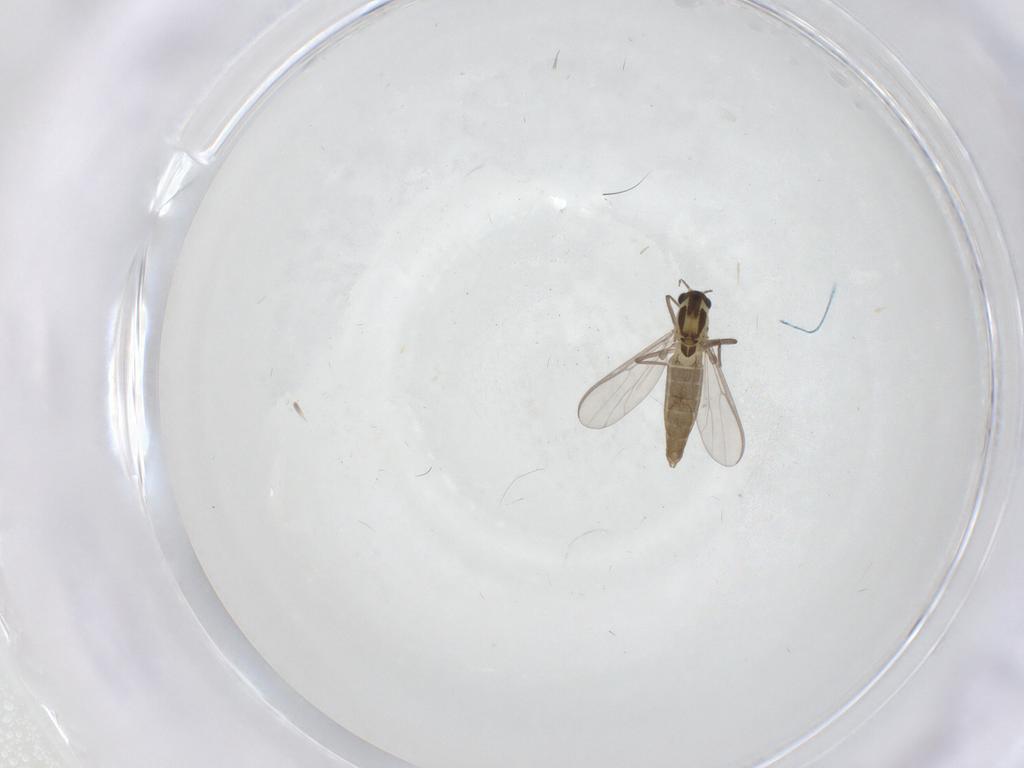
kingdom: Animalia
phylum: Arthropoda
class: Insecta
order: Diptera
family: Chironomidae
